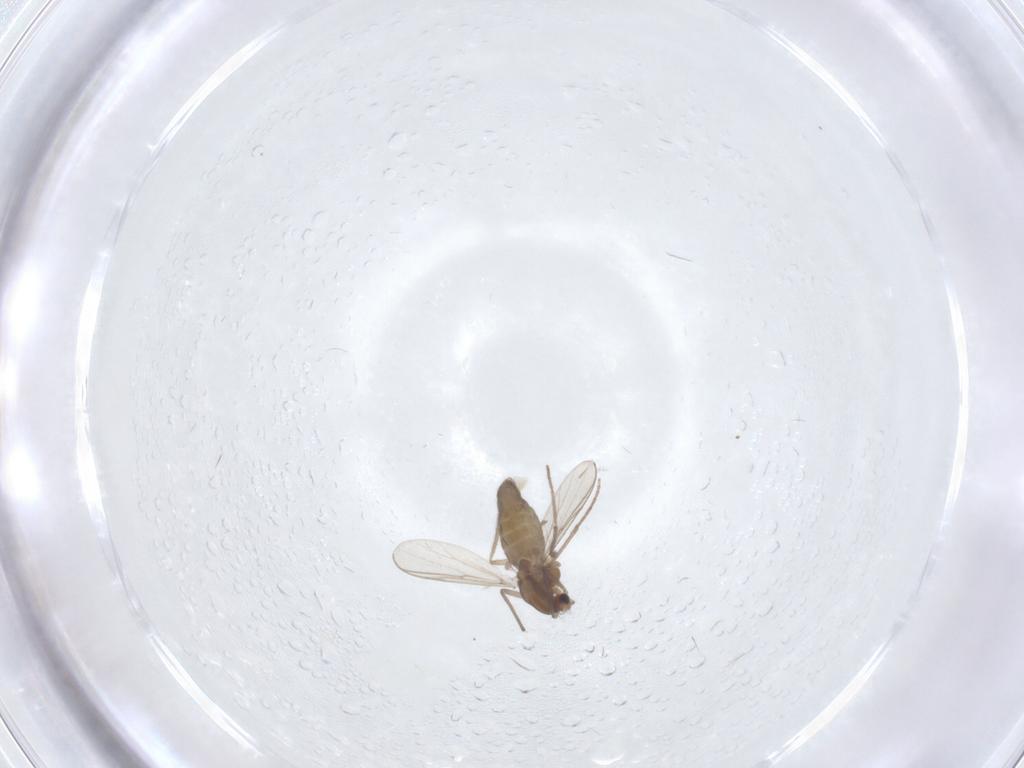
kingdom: Animalia
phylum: Arthropoda
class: Insecta
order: Diptera
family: Chironomidae
